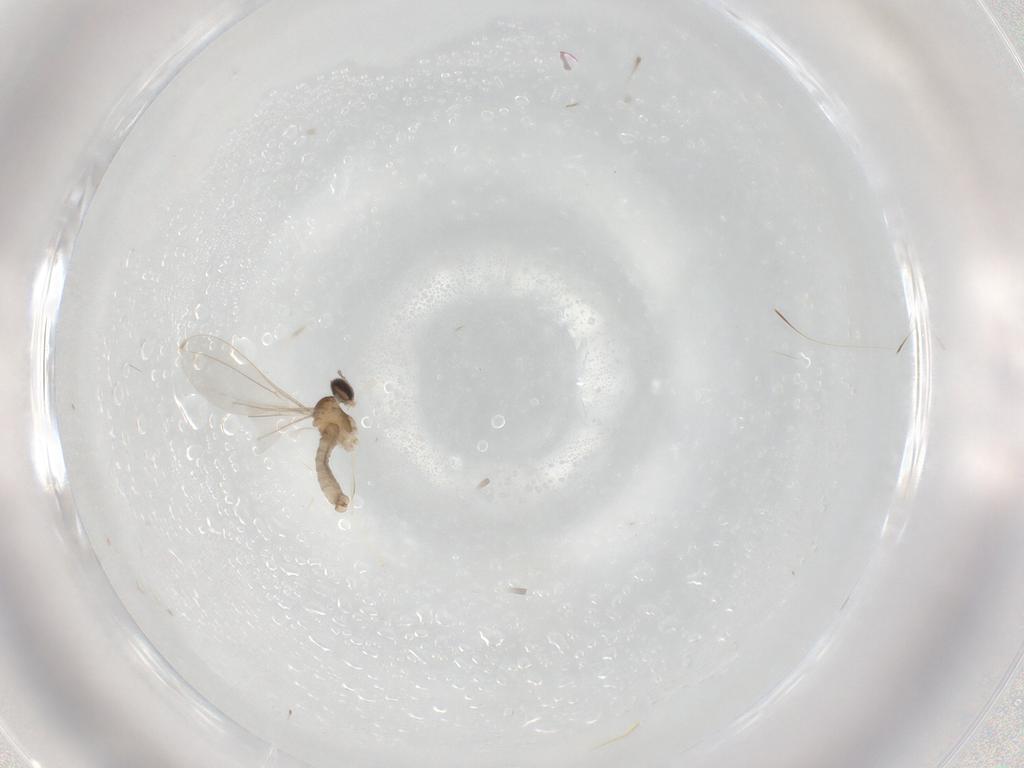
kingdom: Animalia
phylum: Arthropoda
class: Insecta
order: Diptera
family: Cecidomyiidae
